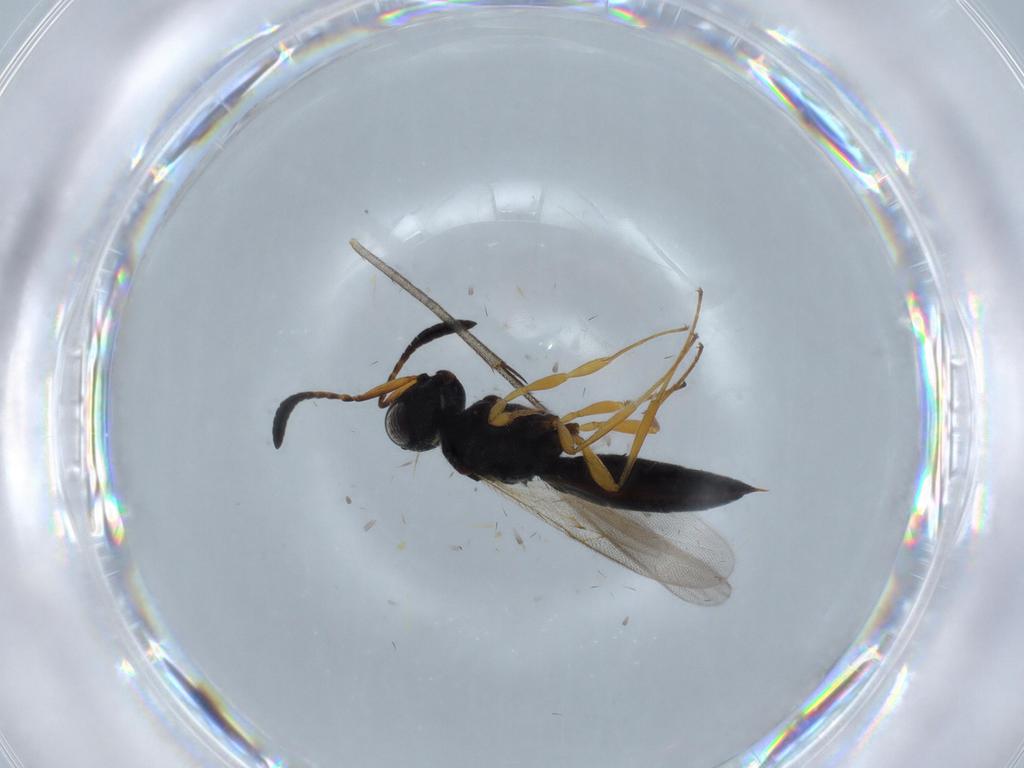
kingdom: Animalia
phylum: Arthropoda
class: Insecta
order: Hymenoptera
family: Scelionidae
